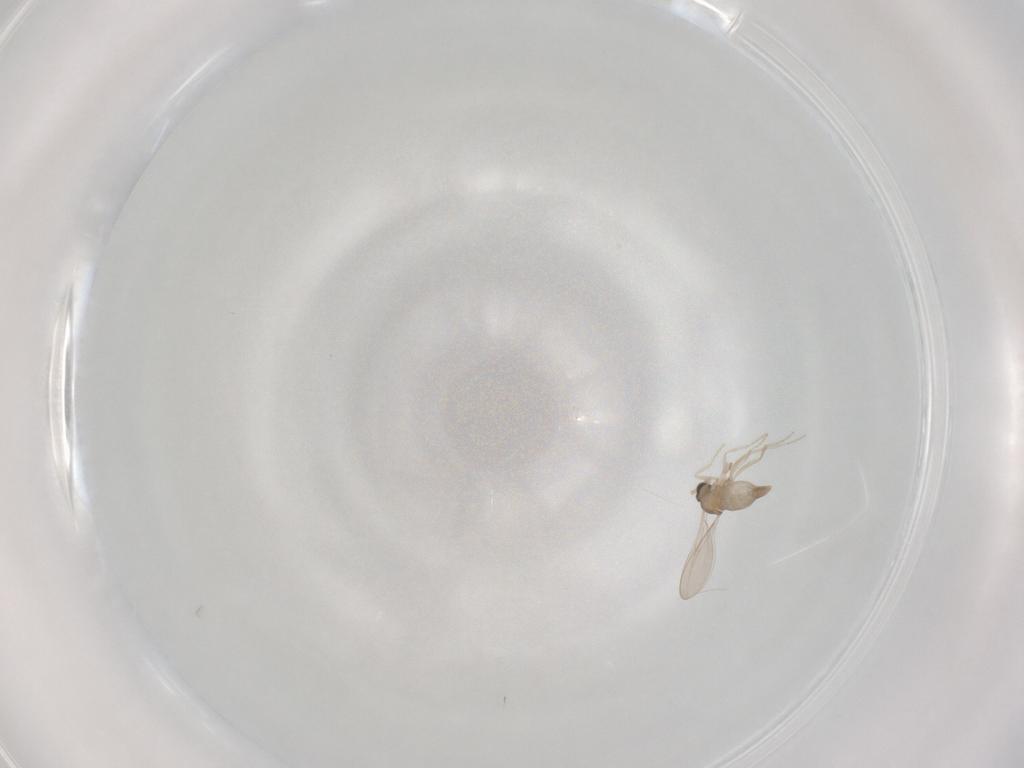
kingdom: Animalia
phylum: Arthropoda
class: Insecta
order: Diptera
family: Cecidomyiidae
